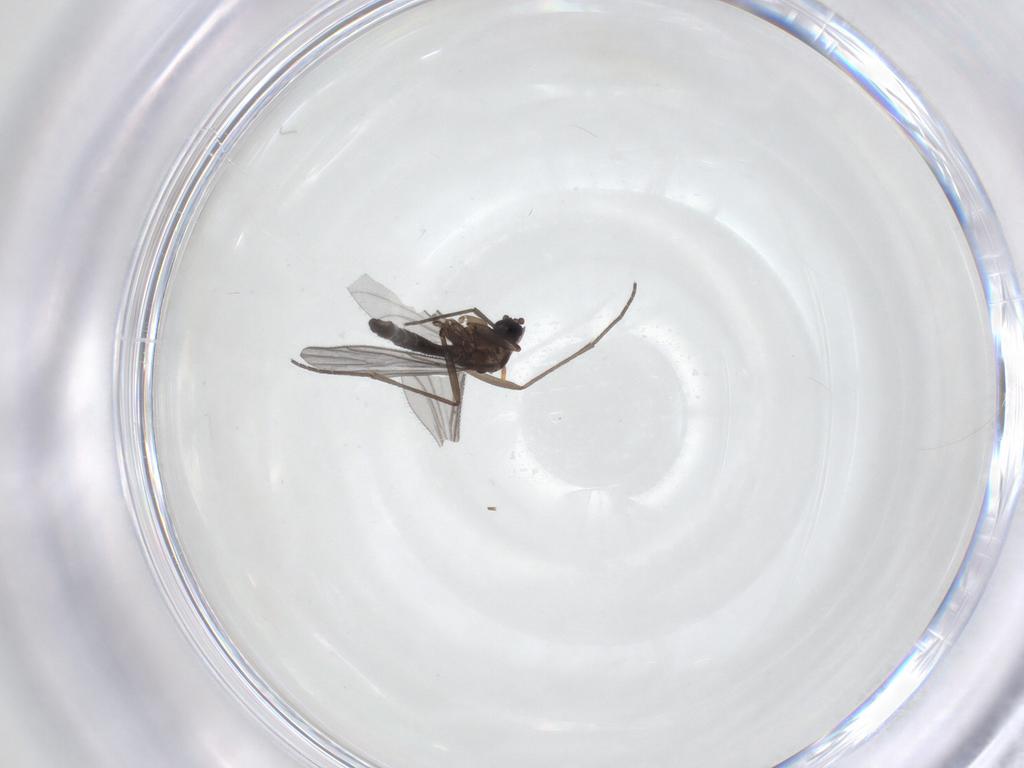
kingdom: Animalia
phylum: Arthropoda
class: Insecta
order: Diptera
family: Sciaridae
